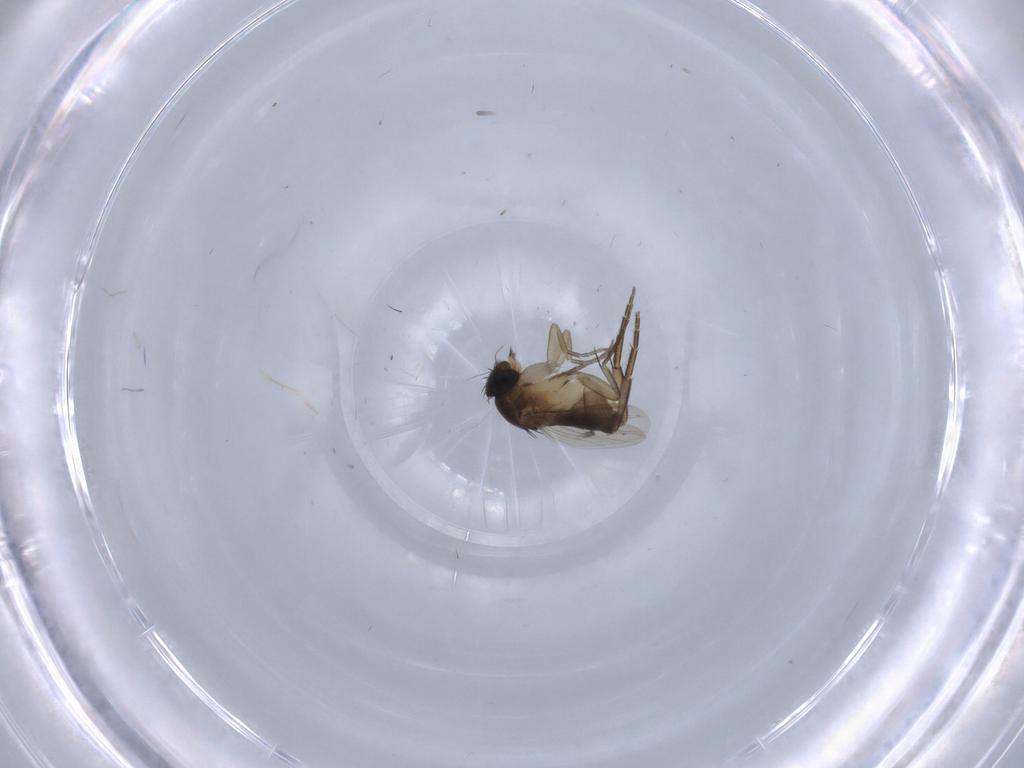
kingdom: Animalia
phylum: Arthropoda
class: Insecta
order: Diptera
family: Phoridae
